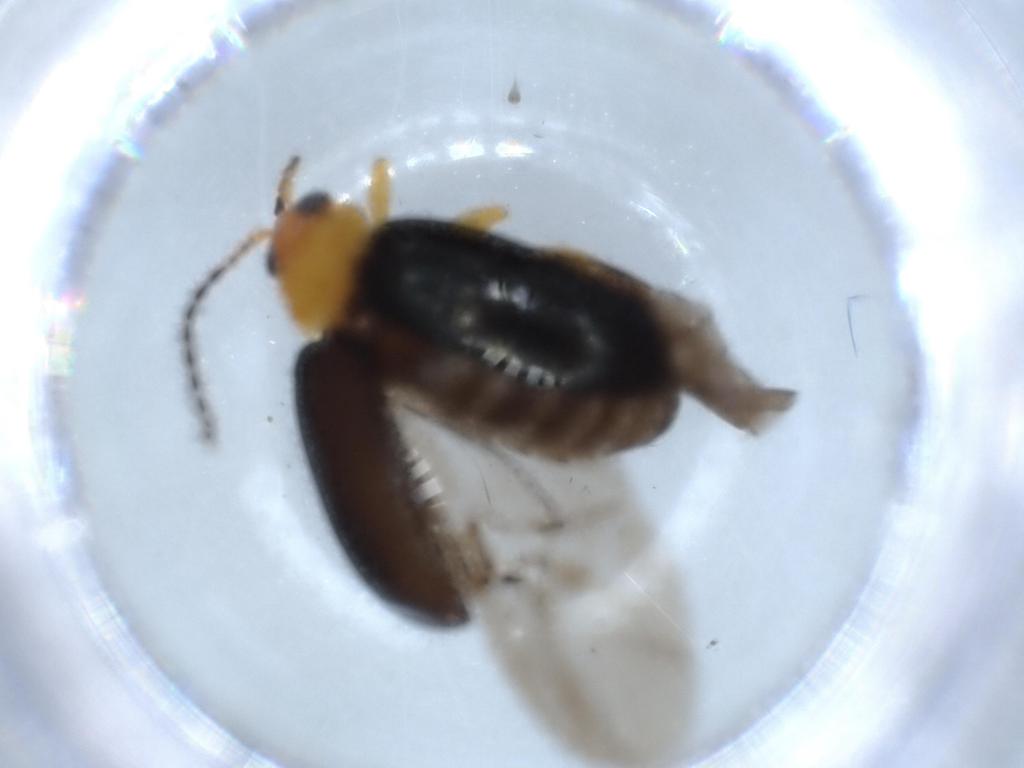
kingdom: Animalia
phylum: Arthropoda
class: Insecta
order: Coleoptera
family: Chrysomelidae
